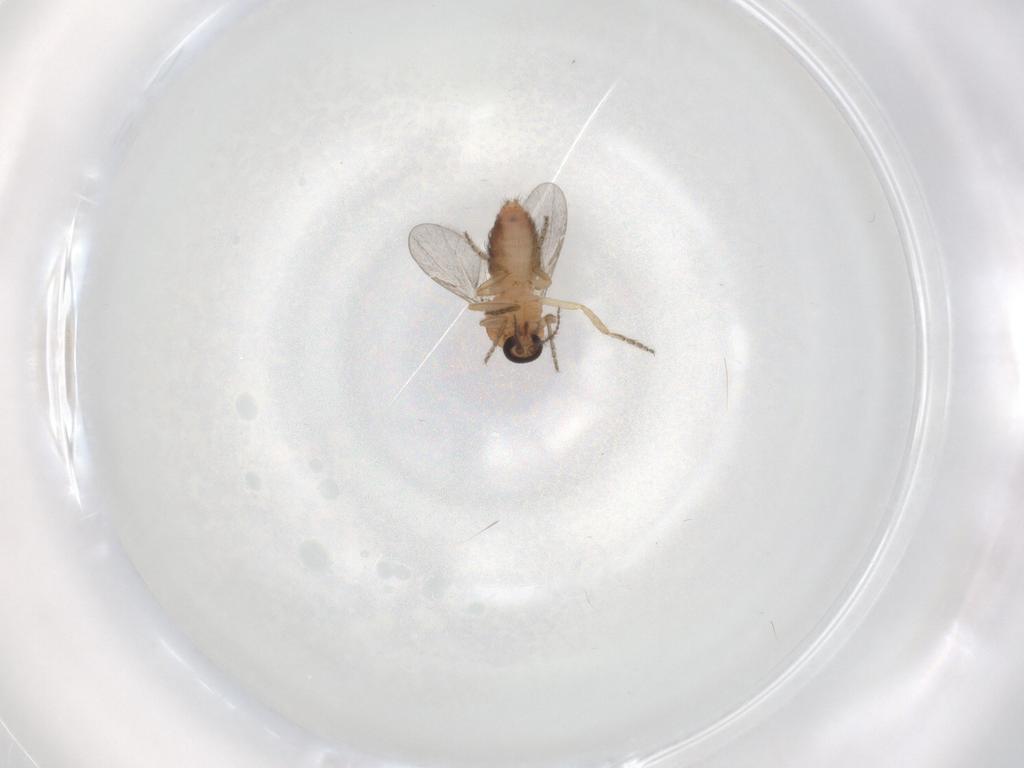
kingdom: Animalia
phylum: Arthropoda
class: Insecta
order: Diptera
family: Ceratopogonidae
